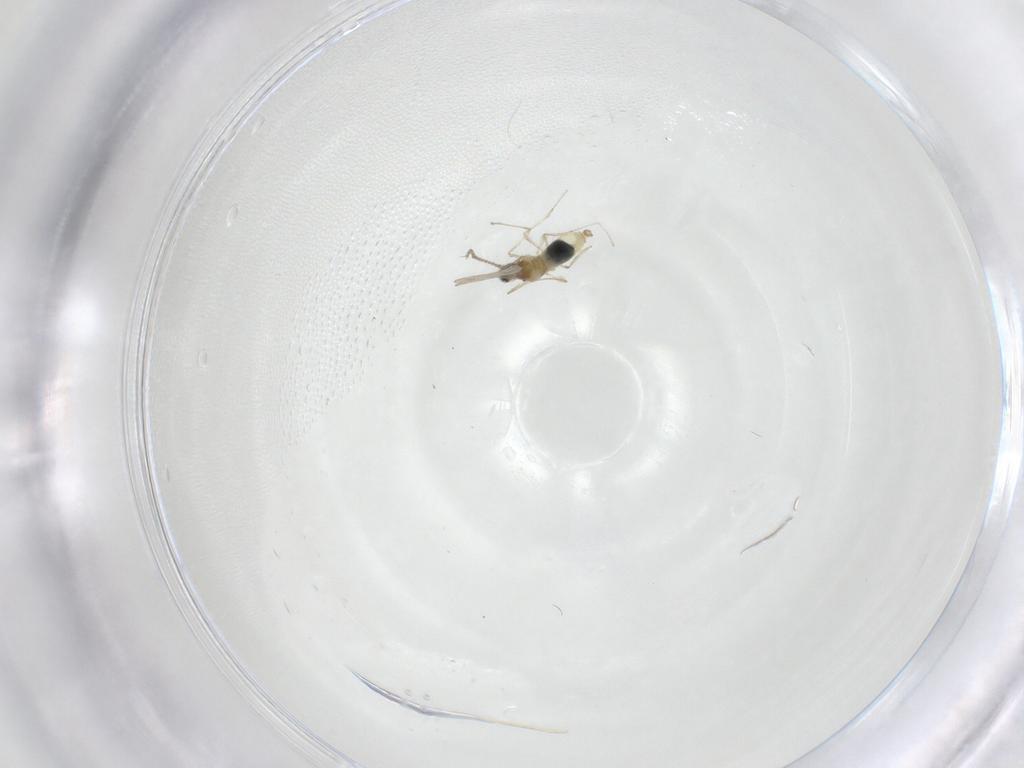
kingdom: Animalia
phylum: Arthropoda
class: Insecta
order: Diptera
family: Cecidomyiidae
